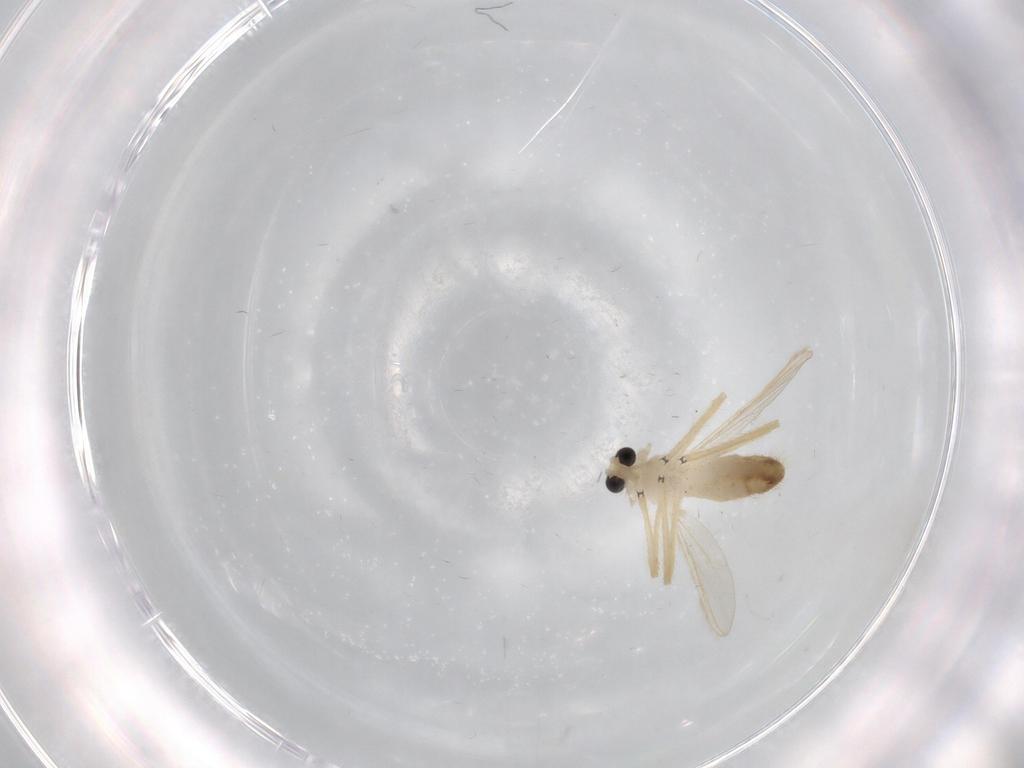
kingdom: Animalia
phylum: Arthropoda
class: Insecta
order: Diptera
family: Chironomidae
